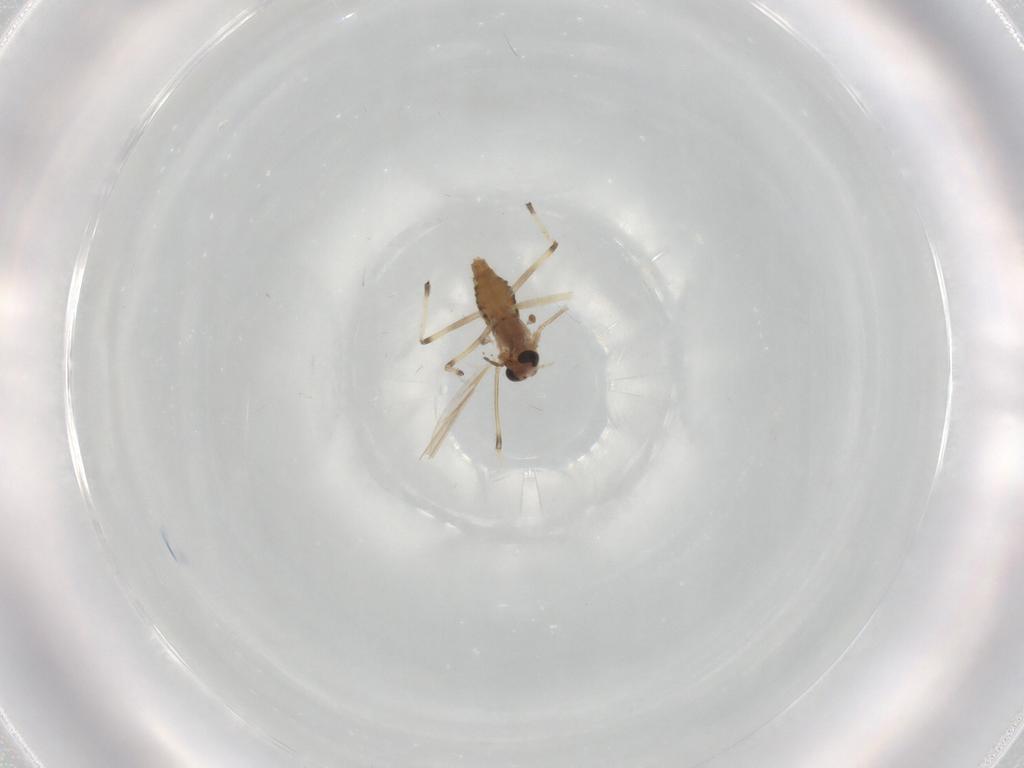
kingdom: Animalia
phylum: Arthropoda
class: Insecta
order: Diptera
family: Chironomidae
